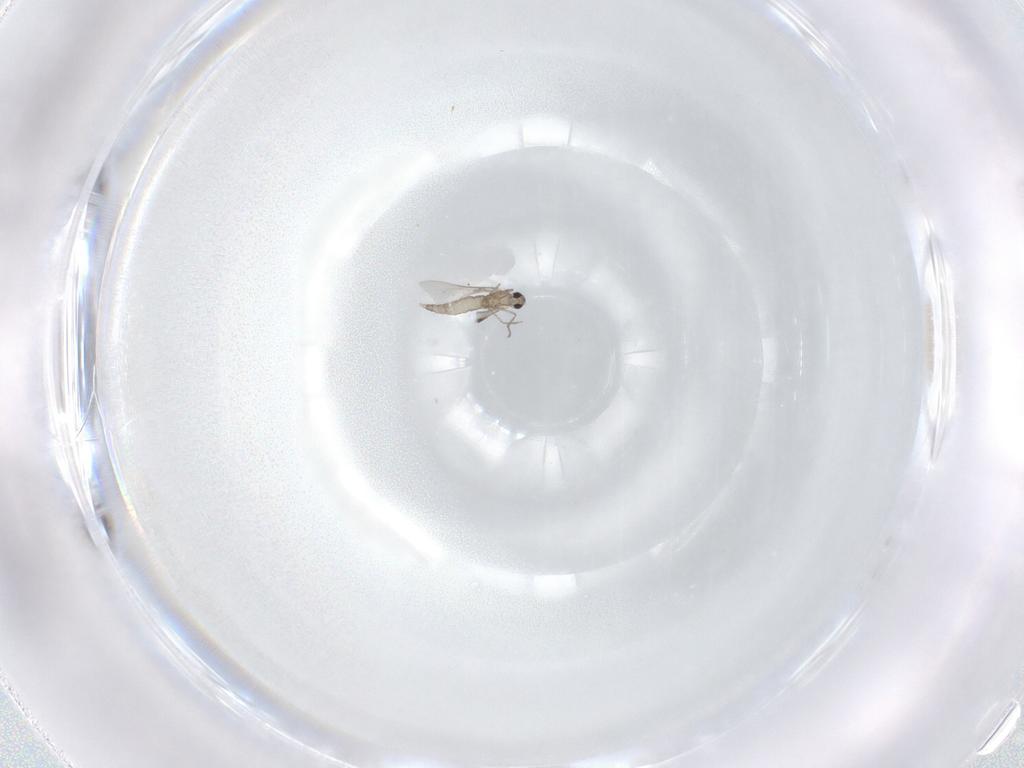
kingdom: Animalia
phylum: Arthropoda
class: Insecta
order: Diptera
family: Cecidomyiidae
